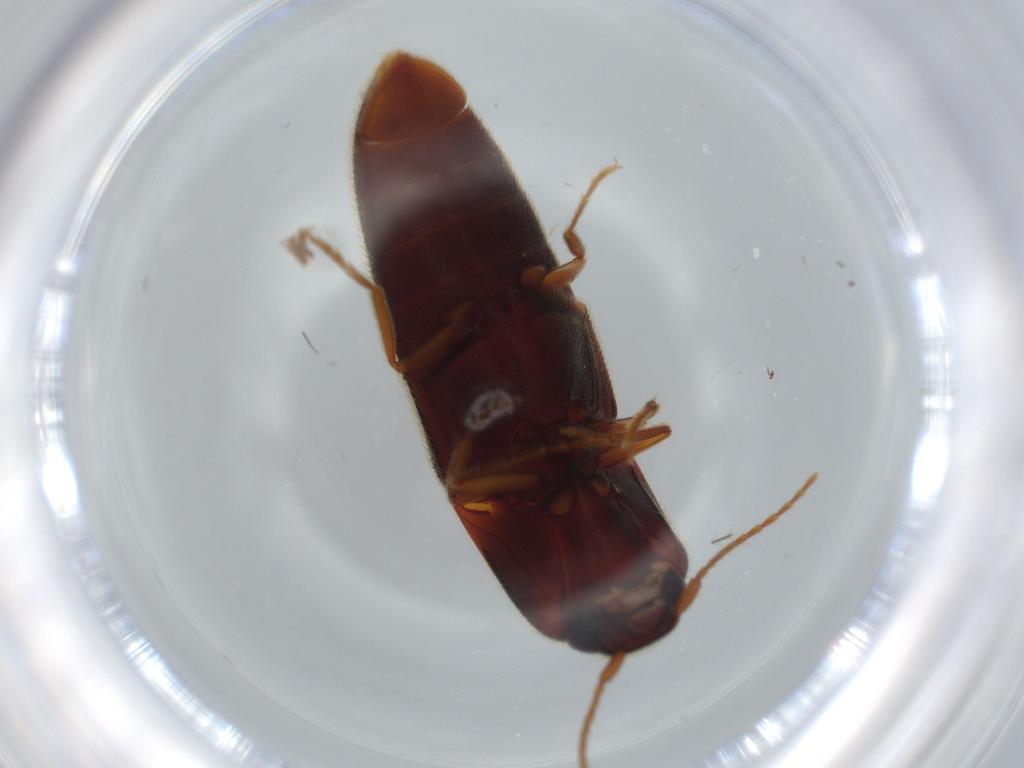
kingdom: Animalia
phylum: Arthropoda
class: Insecta
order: Coleoptera
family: Elateridae
